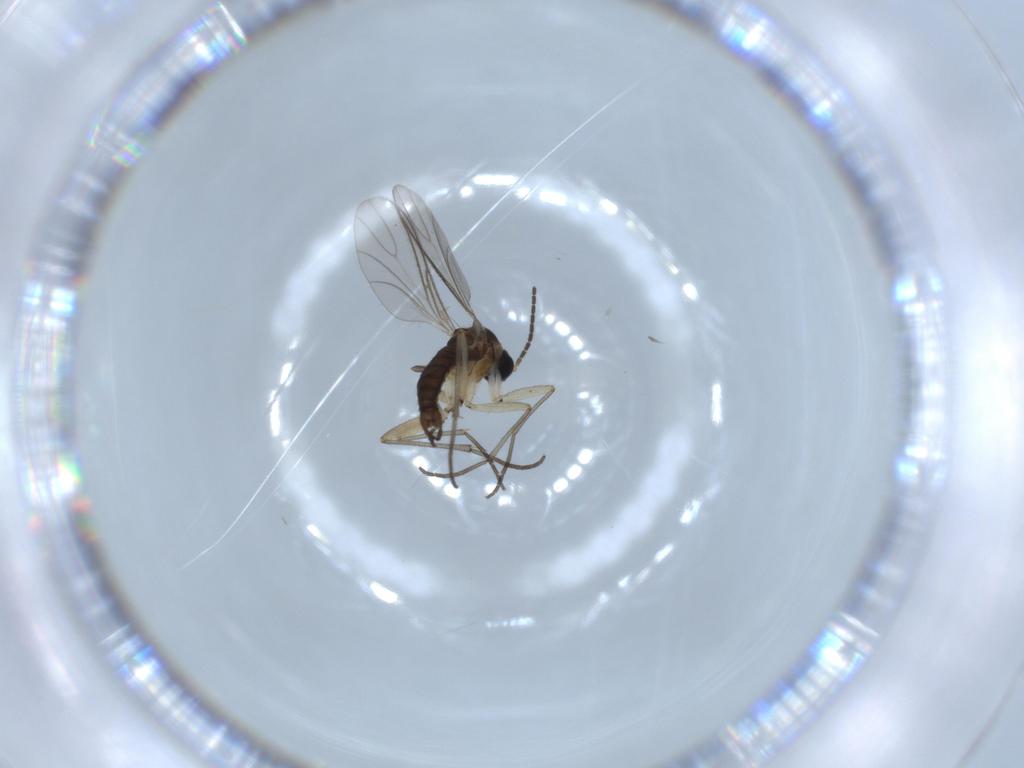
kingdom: Animalia
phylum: Arthropoda
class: Insecta
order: Diptera
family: Sciaridae
